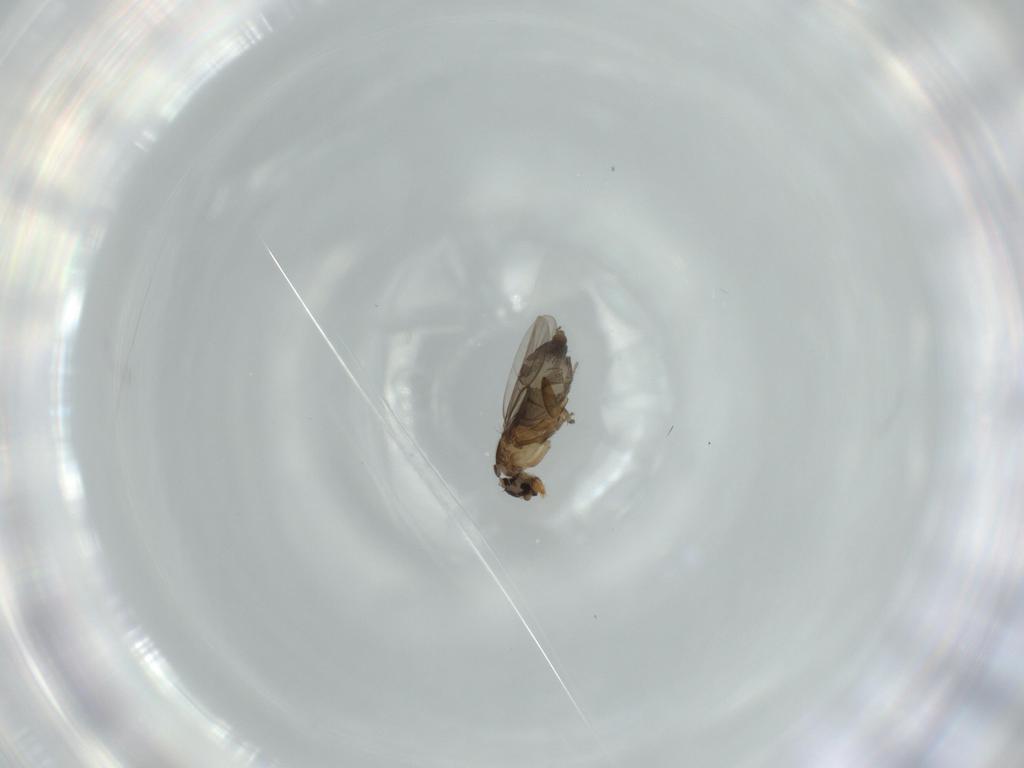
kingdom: Animalia
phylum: Arthropoda
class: Insecta
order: Diptera
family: Phoridae
